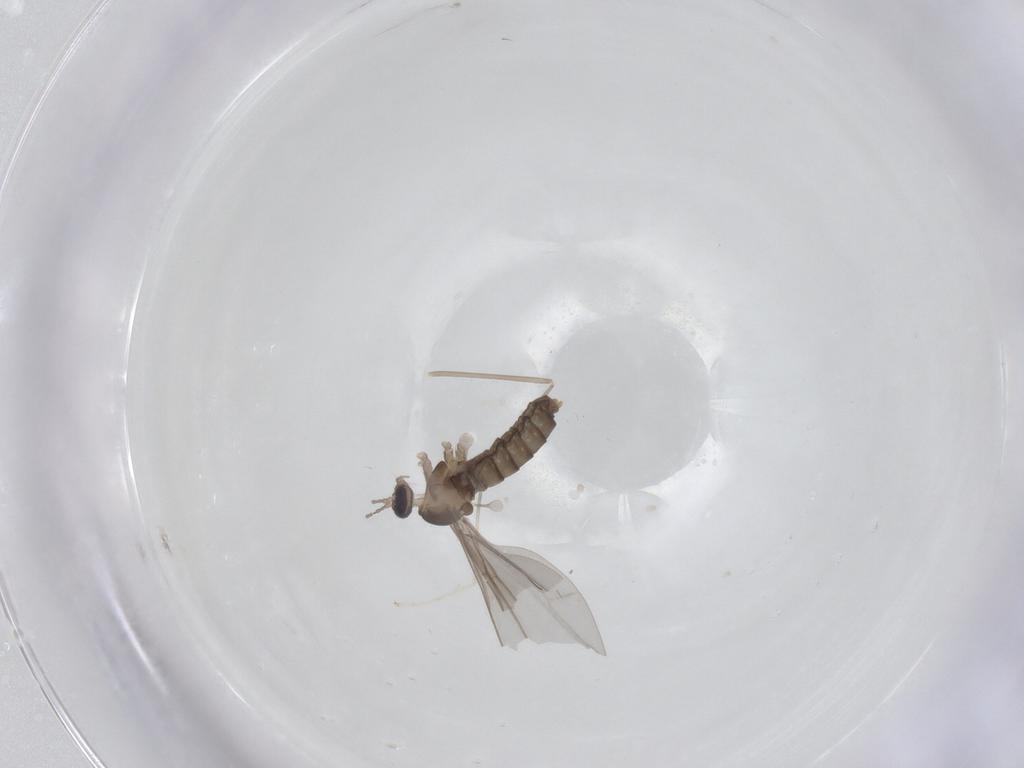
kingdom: Animalia
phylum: Arthropoda
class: Insecta
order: Diptera
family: Cecidomyiidae
